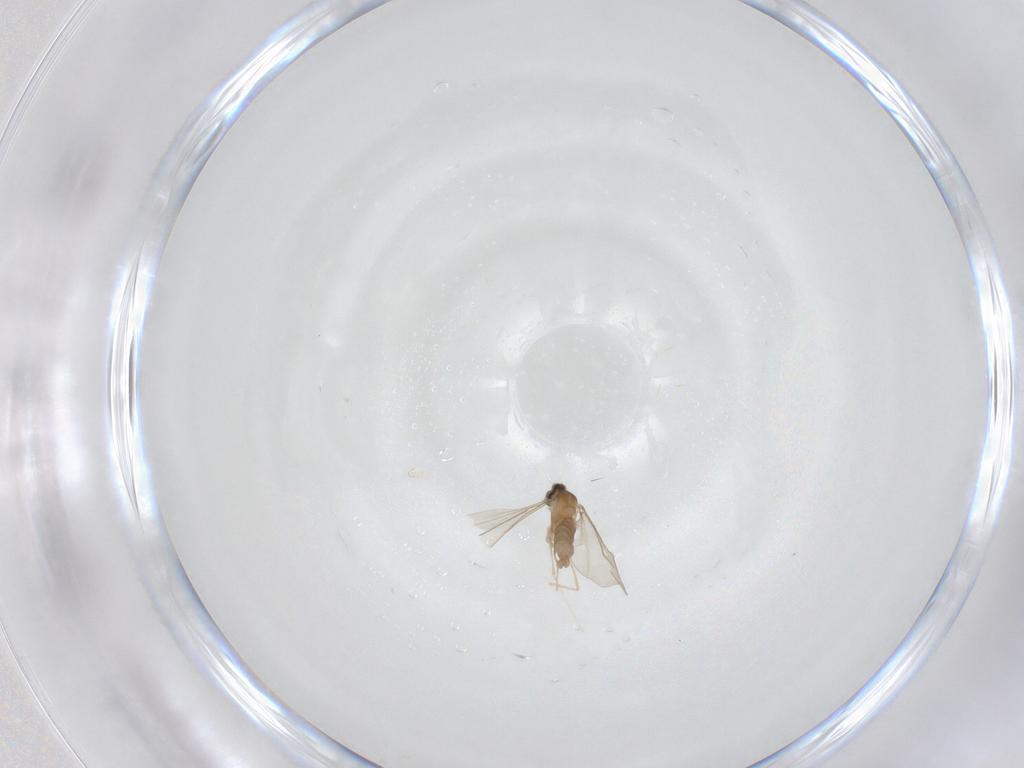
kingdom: Animalia
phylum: Arthropoda
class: Insecta
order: Diptera
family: Cecidomyiidae
